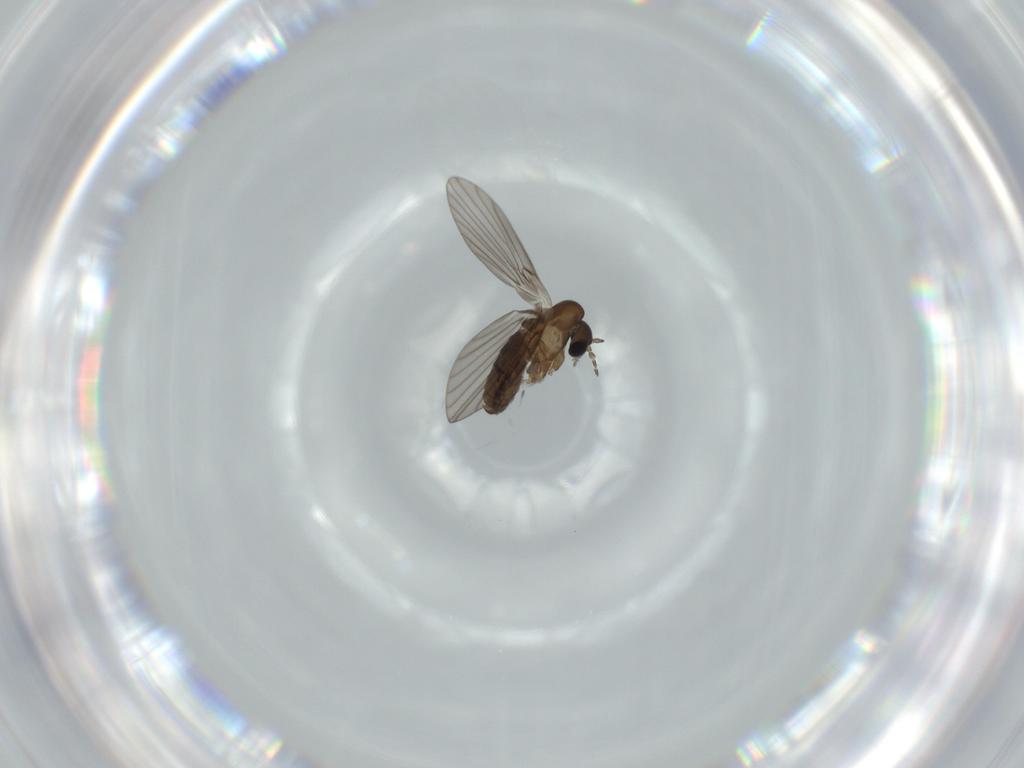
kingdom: Animalia
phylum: Arthropoda
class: Insecta
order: Diptera
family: Psychodidae
